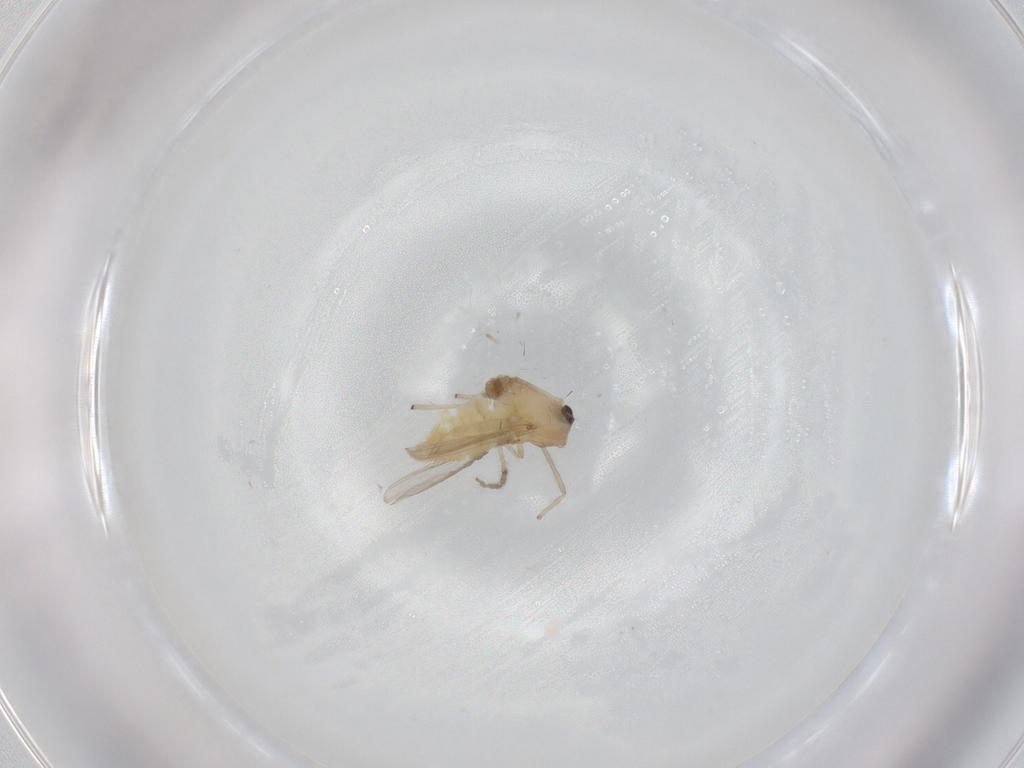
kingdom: Animalia
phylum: Arthropoda
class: Insecta
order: Diptera
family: Chironomidae
